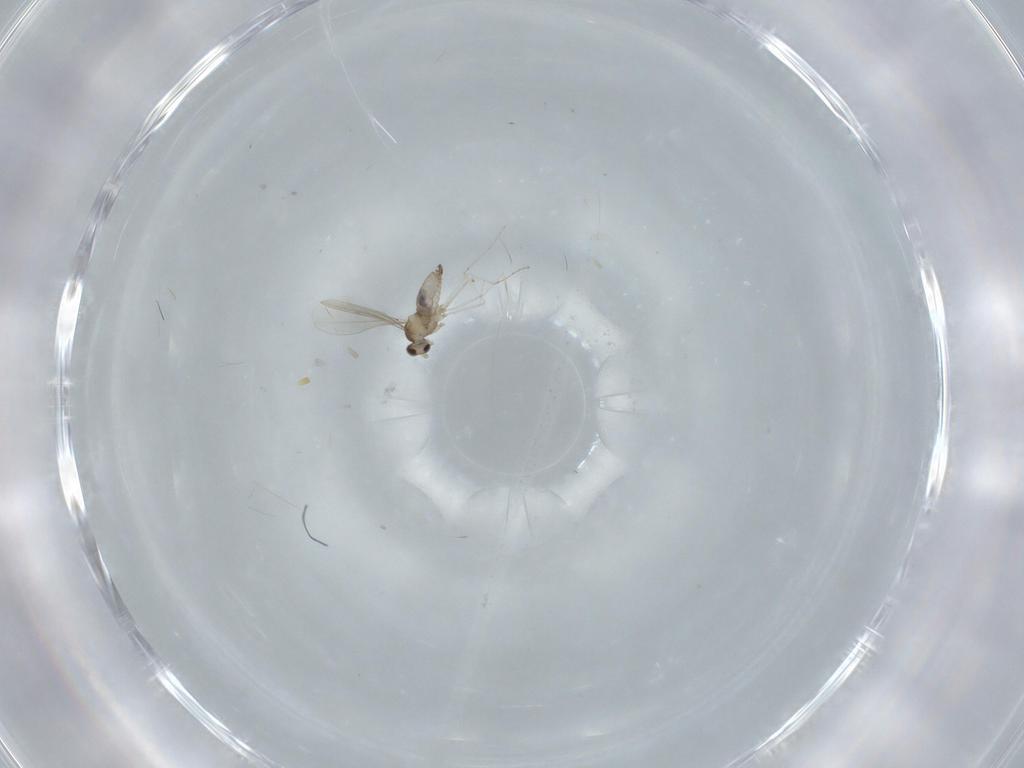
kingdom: Animalia
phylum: Arthropoda
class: Insecta
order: Diptera
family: Cecidomyiidae
